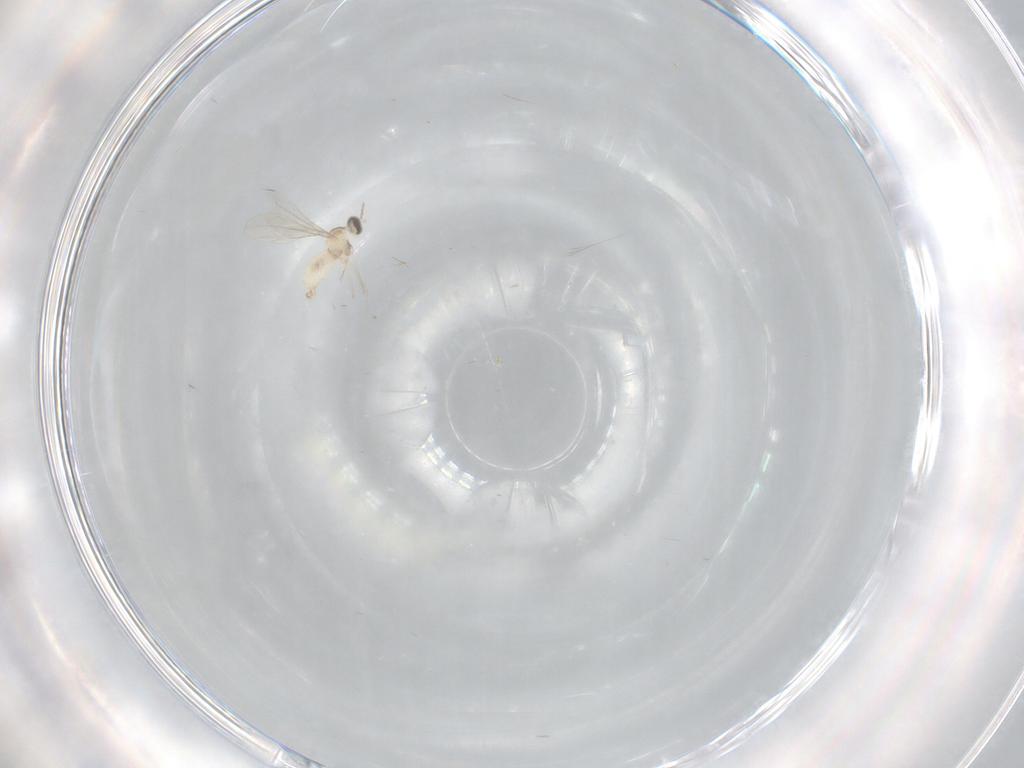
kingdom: Animalia
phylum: Arthropoda
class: Insecta
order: Diptera
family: Cecidomyiidae
